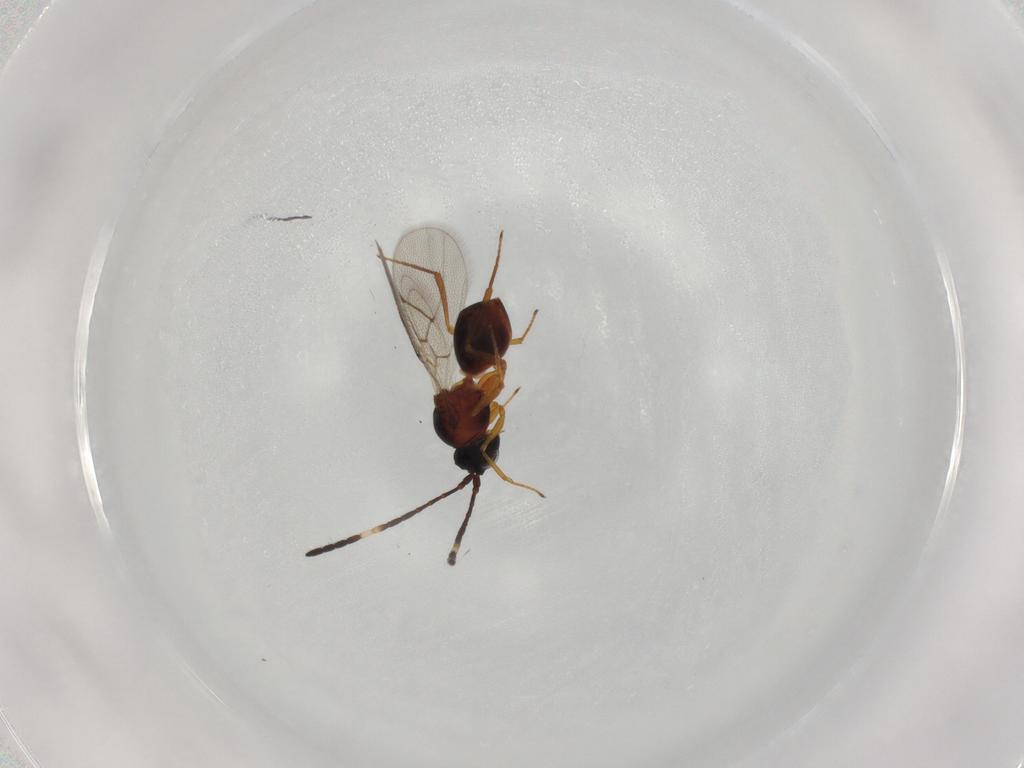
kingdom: Animalia
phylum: Arthropoda
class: Insecta
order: Hymenoptera
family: Figitidae
